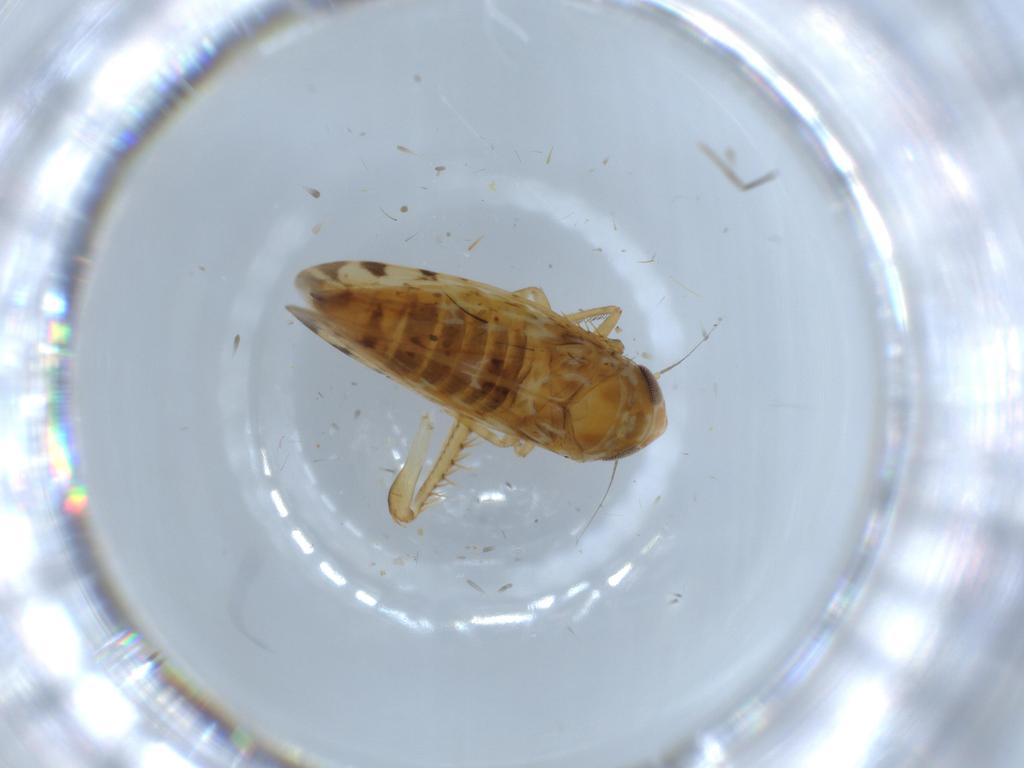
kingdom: Animalia
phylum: Arthropoda
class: Insecta
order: Hemiptera
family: Cicadellidae
